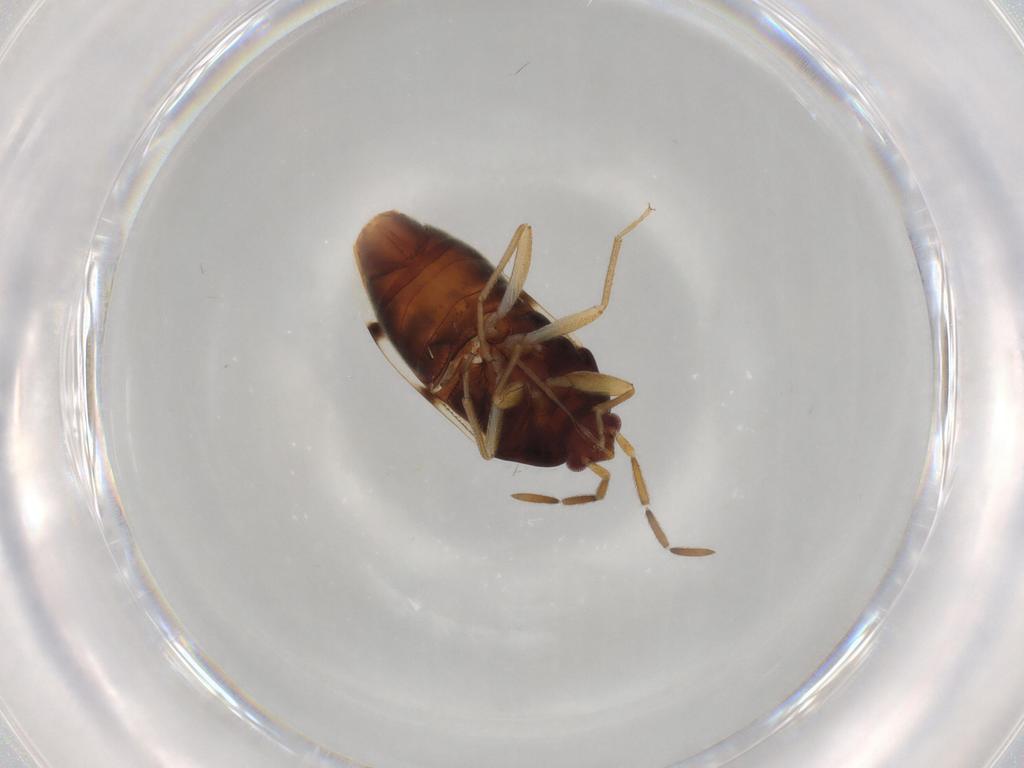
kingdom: Animalia
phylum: Arthropoda
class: Insecta
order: Hemiptera
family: Rhyparochromidae
